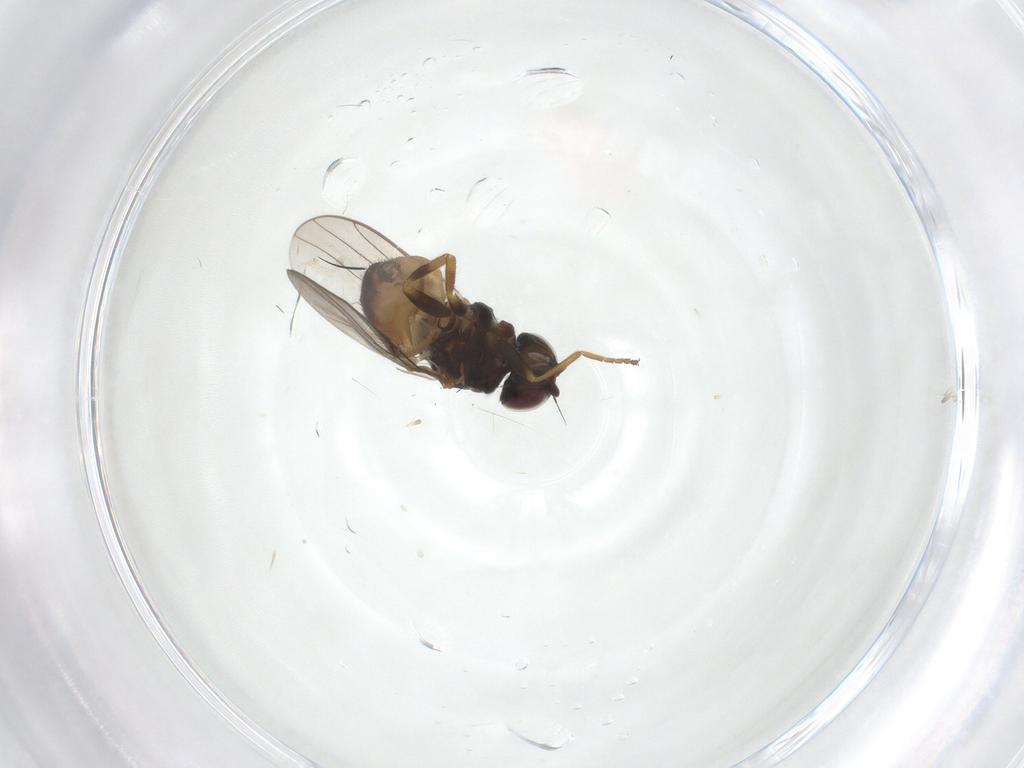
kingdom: Animalia
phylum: Arthropoda
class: Insecta
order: Diptera
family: Chloropidae
